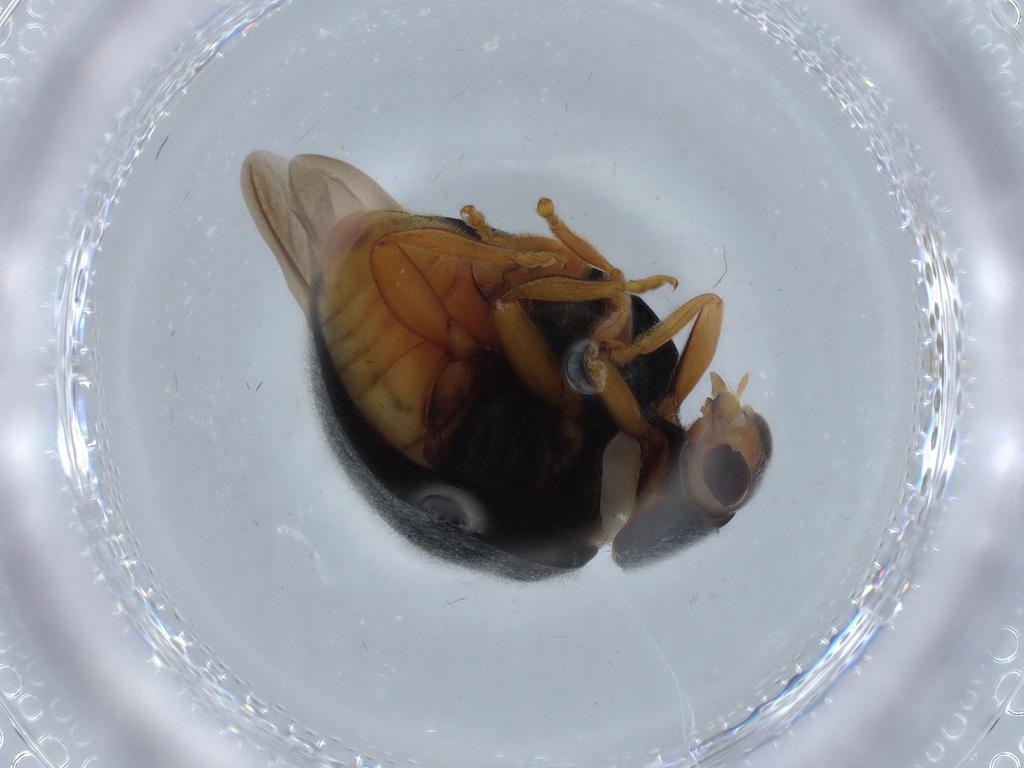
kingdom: Animalia
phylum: Arthropoda
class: Insecta
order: Coleoptera
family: Coccinellidae
